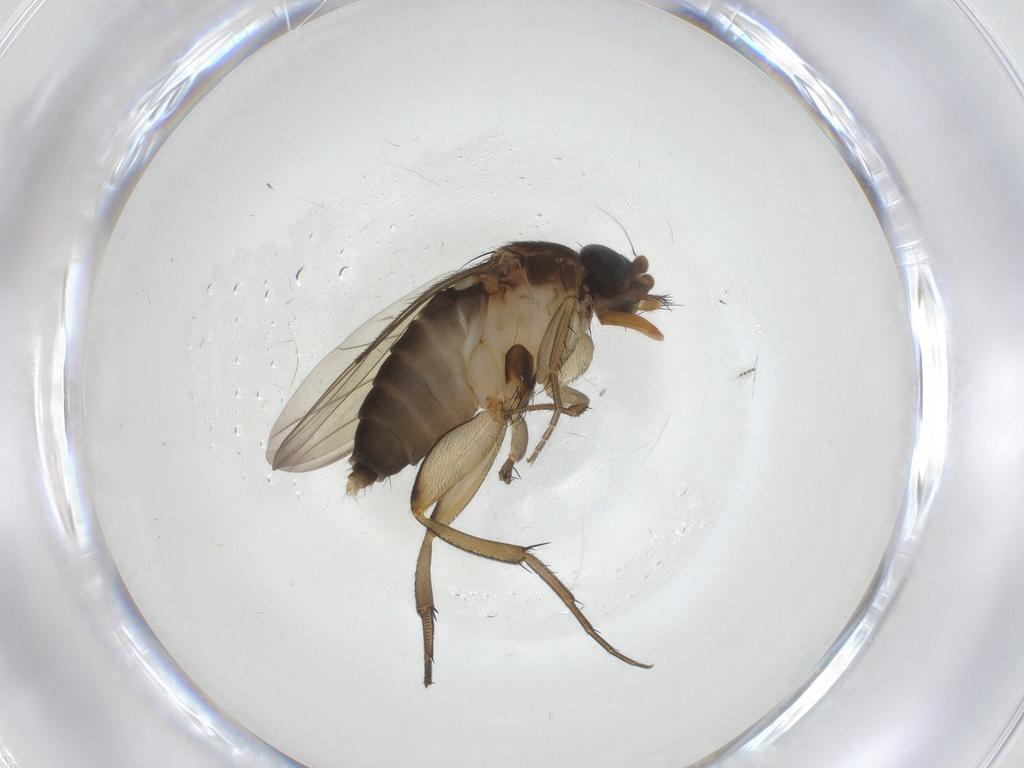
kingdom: Animalia
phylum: Arthropoda
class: Insecta
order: Diptera
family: Phoridae
